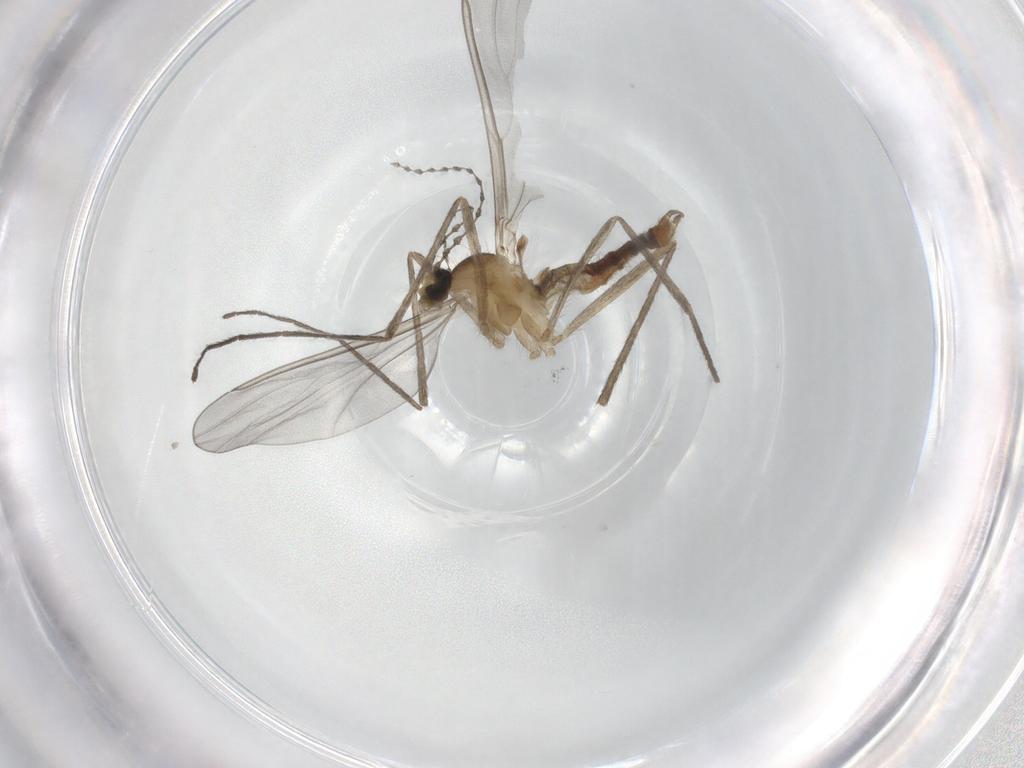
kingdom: Animalia
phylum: Arthropoda
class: Insecta
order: Diptera
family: Cecidomyiidae
